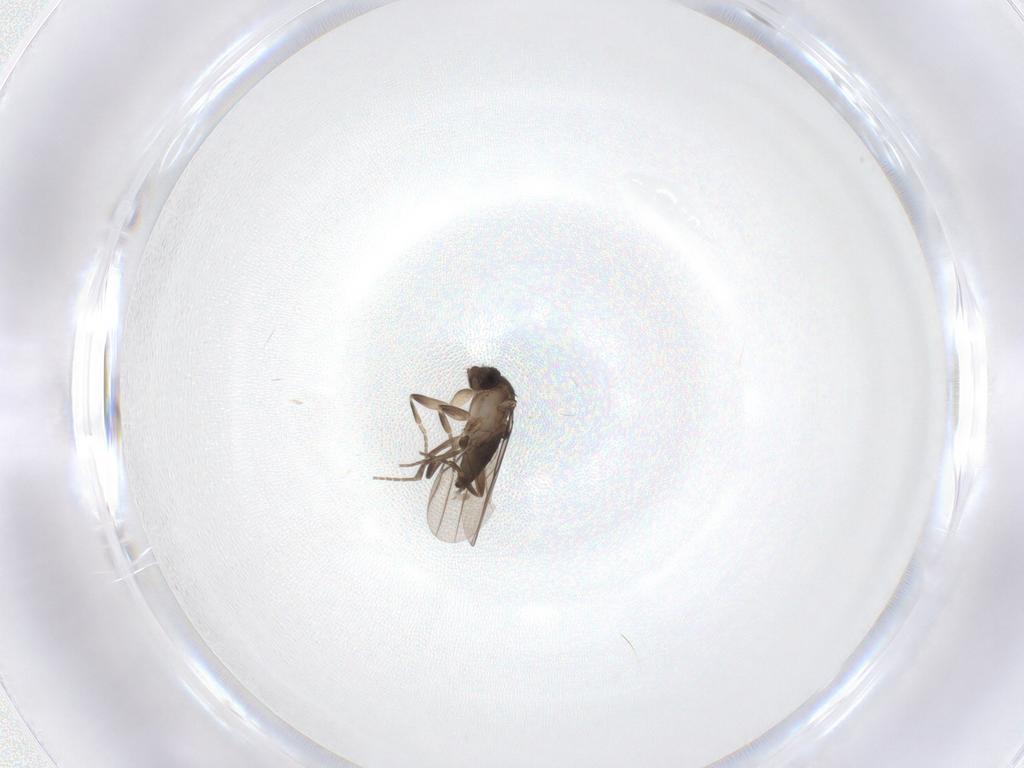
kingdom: Animalia
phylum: Arthropoda
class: Insecta
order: Diptera
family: Phoridae
